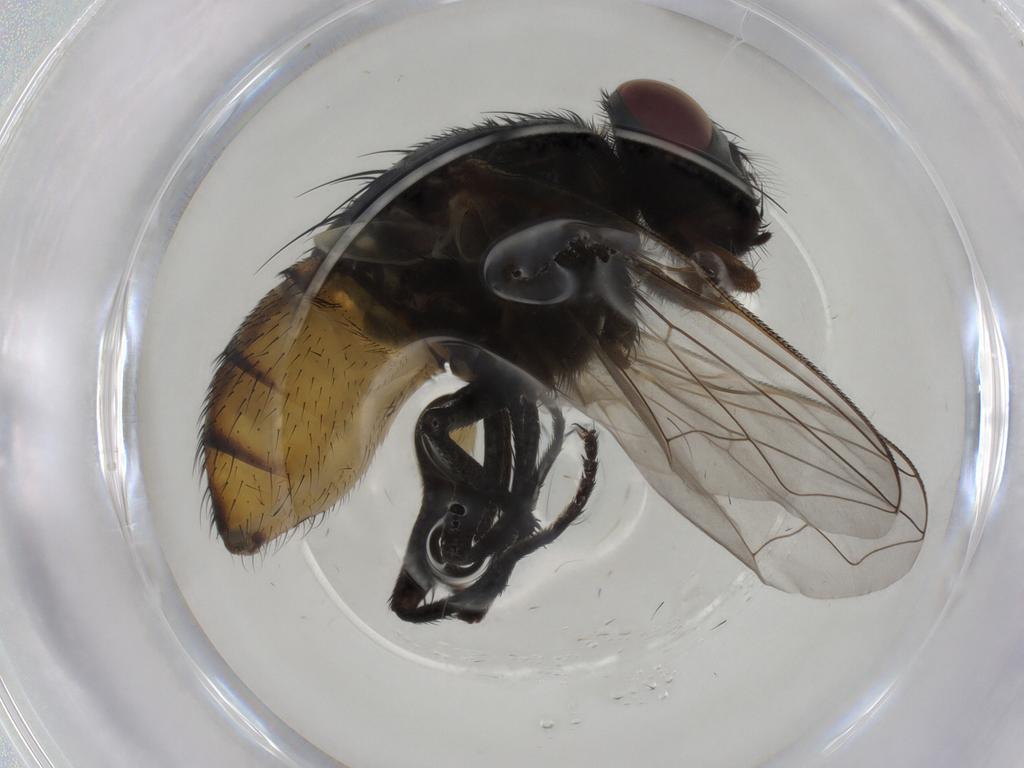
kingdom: Animalia
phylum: Arthropoda
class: Insecta
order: Diptera
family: Muscidae
